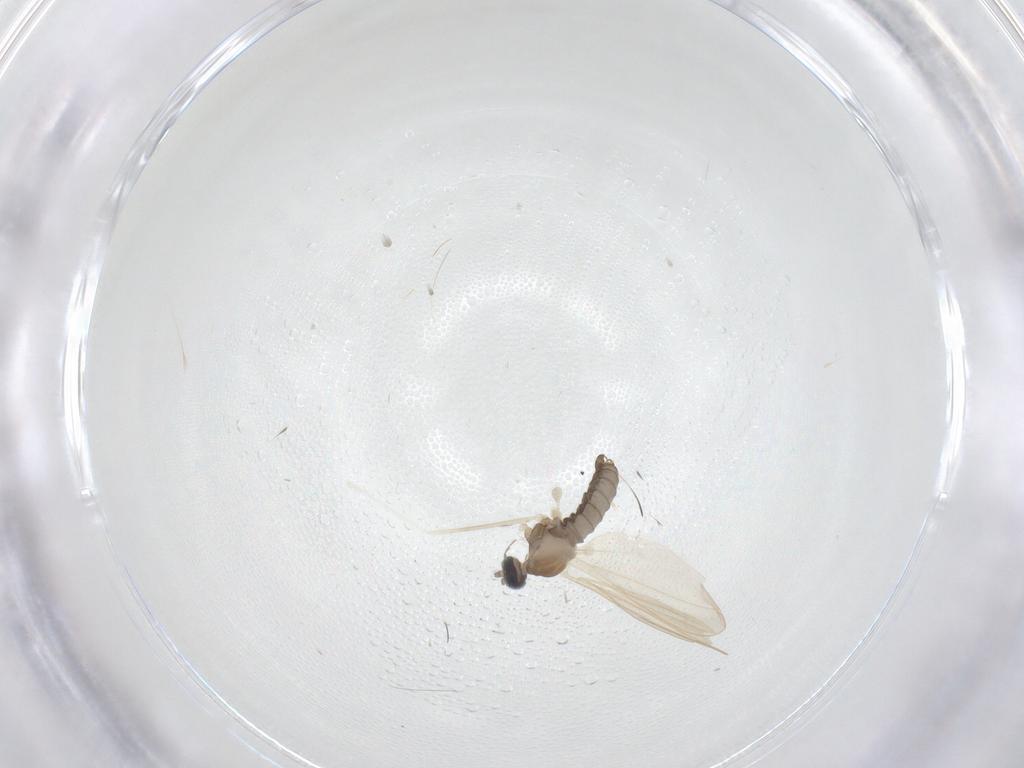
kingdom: Animalia
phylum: Arthropoda
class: Insecta
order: Diptera
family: Cecidomyiidae
